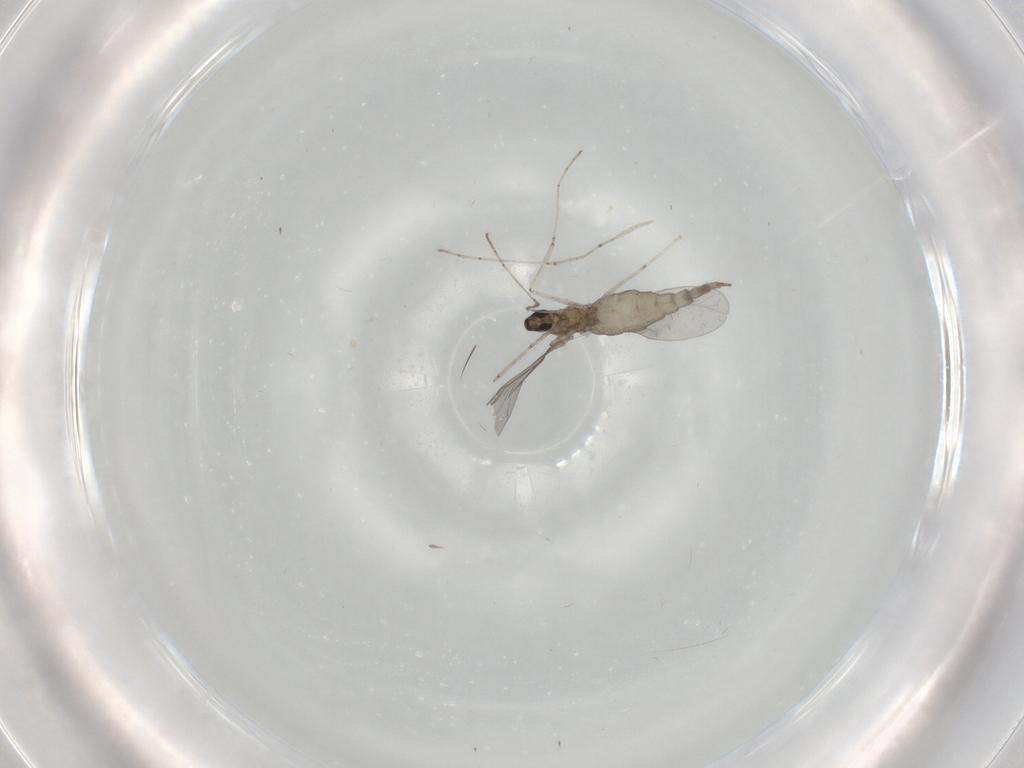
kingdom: Animalia
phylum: Arthropoda
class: Insecta
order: Diptera
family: Cecidomyiidae
